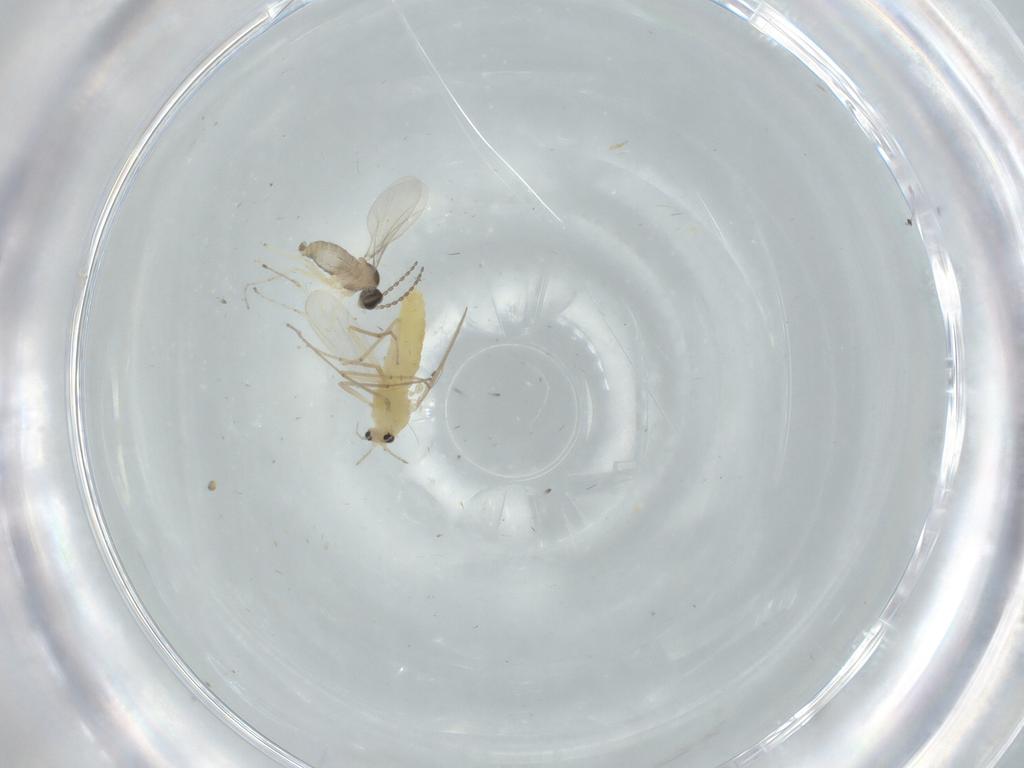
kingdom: Animalia
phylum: Arthropoda
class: Insecta
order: Diptera
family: Chironomidae
